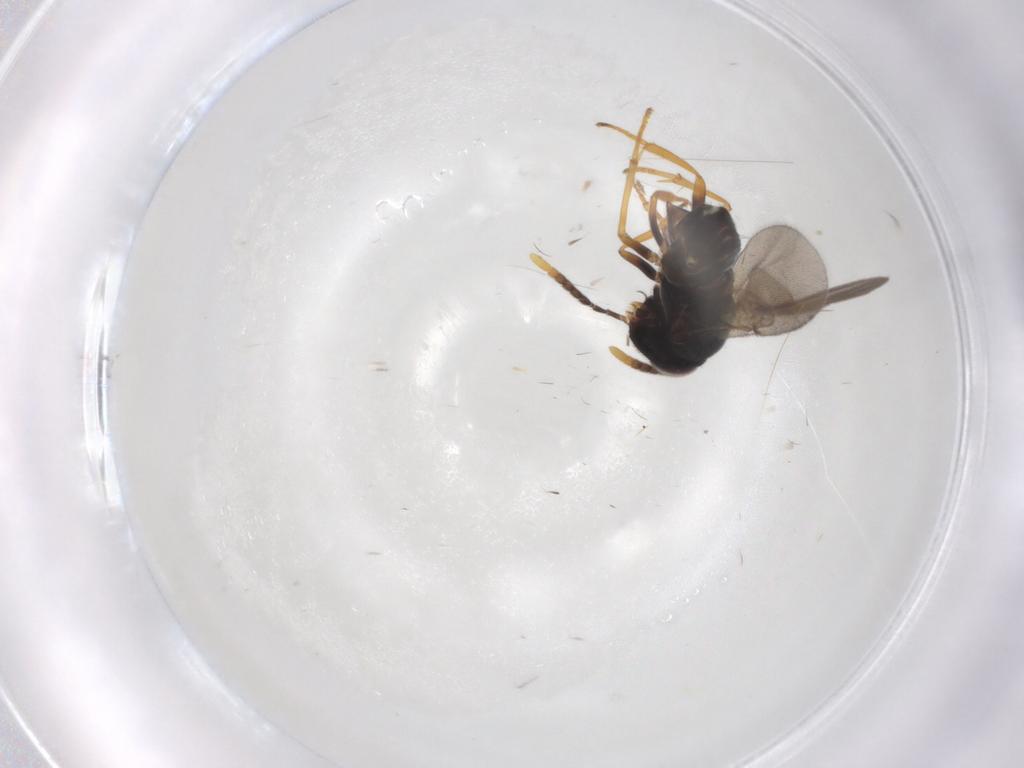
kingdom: Animalia
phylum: Arthropoda
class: Insecta
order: Hymenoptera
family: Encyrtidae
